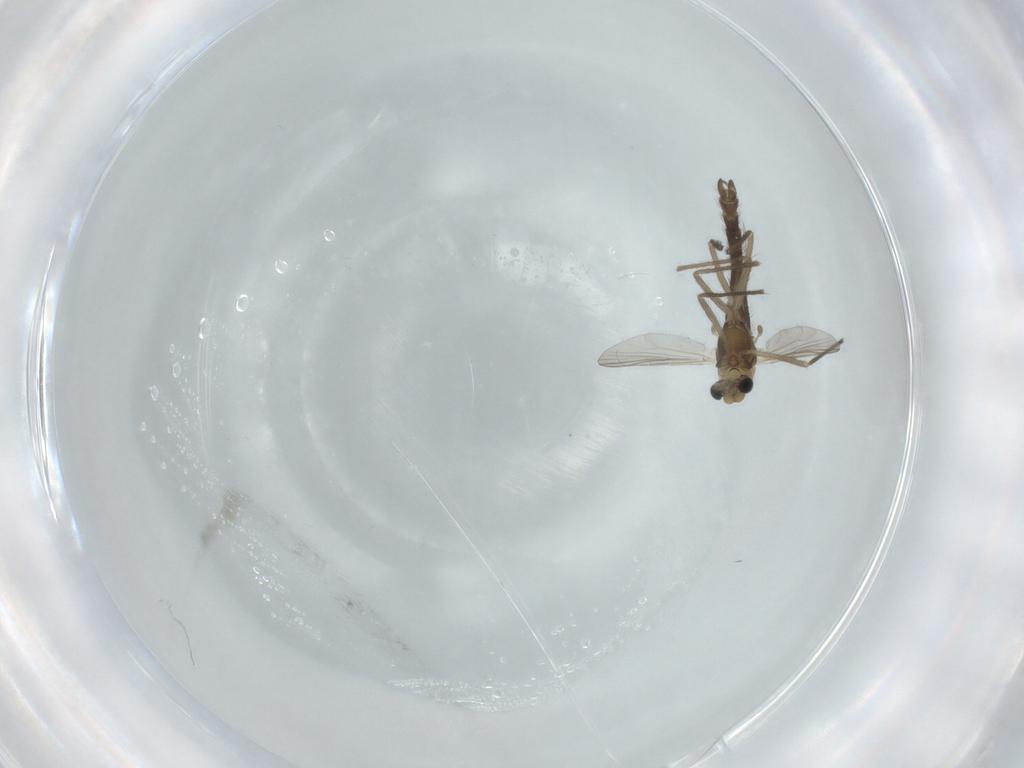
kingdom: Animalia
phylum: Arthropoda
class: Insecta
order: Diptera
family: Chironomidae
